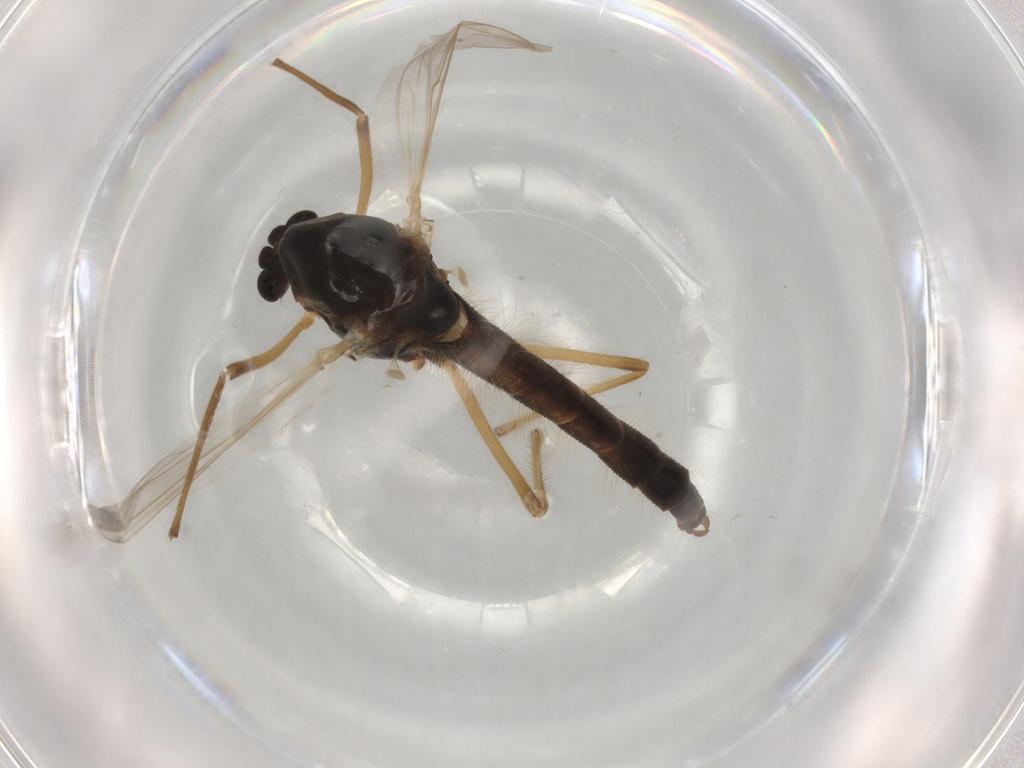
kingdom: Animalia
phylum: Arthropoda
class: Insecta
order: Diptera
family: Chironomidae
